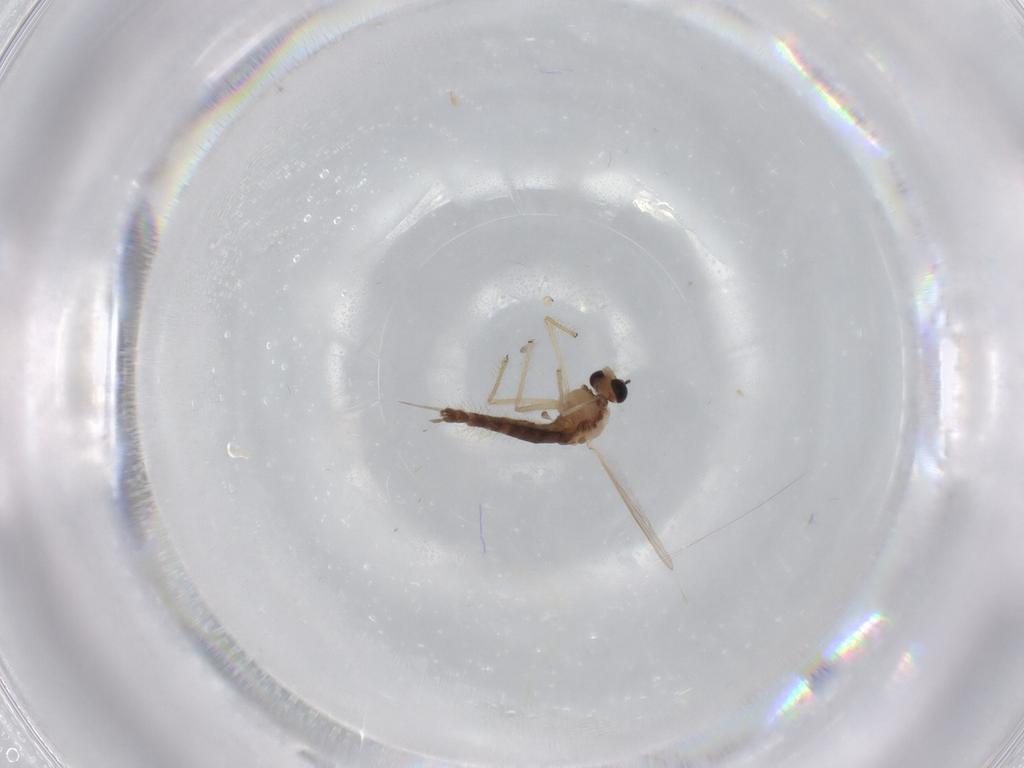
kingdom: Animalia
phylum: Arthropoda
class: Insecta
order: Diptera
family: Chironomidae
